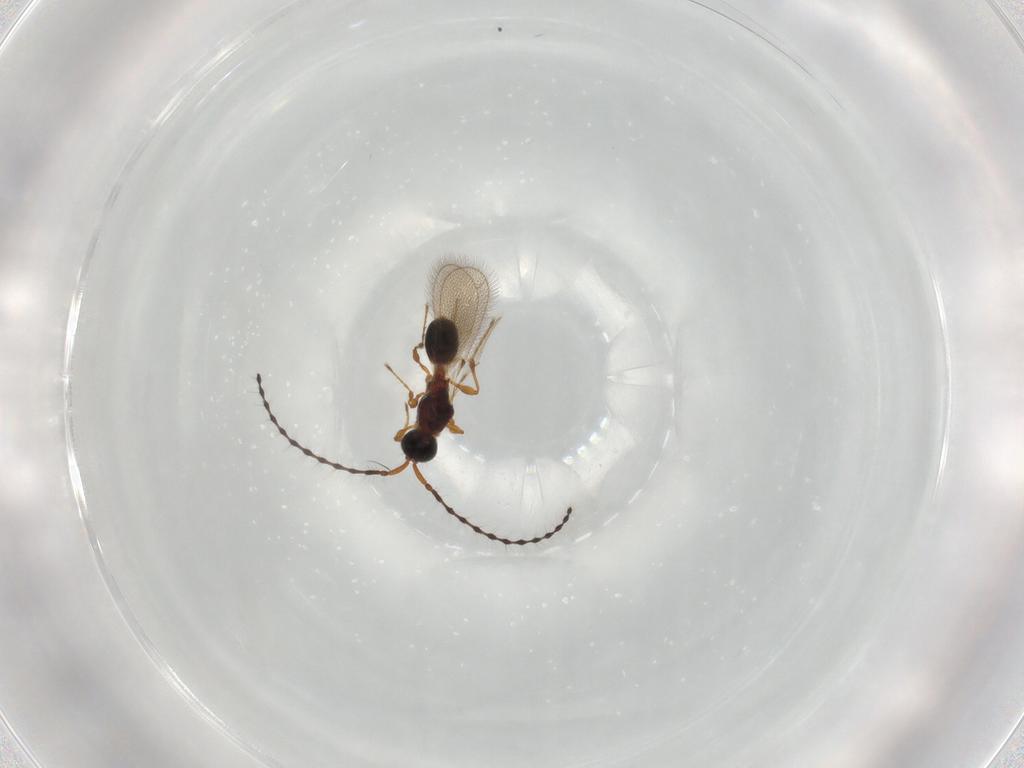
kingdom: Animalia
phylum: Arthropoda
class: Insecta
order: Hymenoptera
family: Diapriidae
